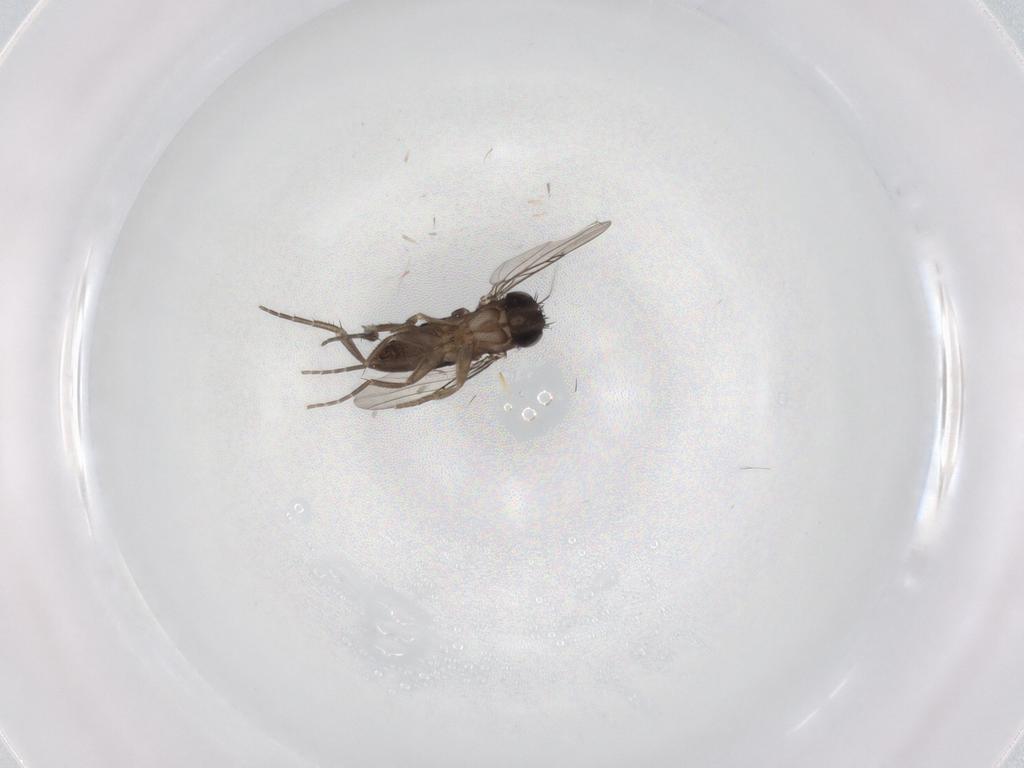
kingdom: Animalia
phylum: Arthropoda
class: Insecta
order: Diptera
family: Phoridae
